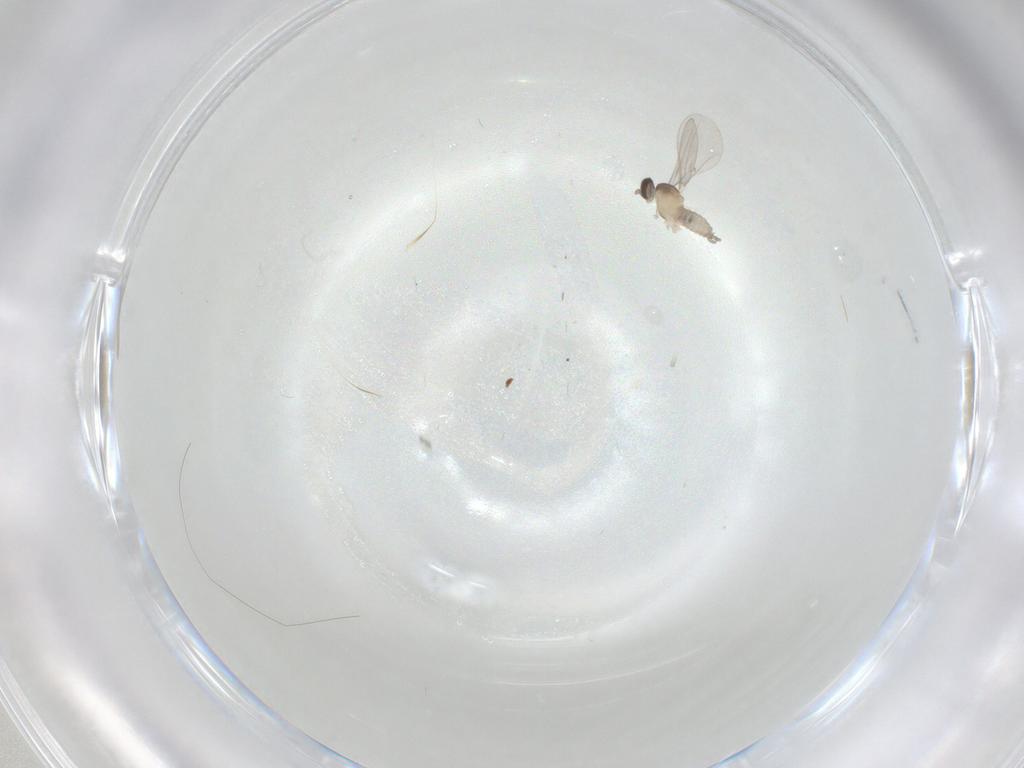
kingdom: Animalia
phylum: Arthropoda
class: Insecta
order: Diptera
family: Cecidomyiidae
